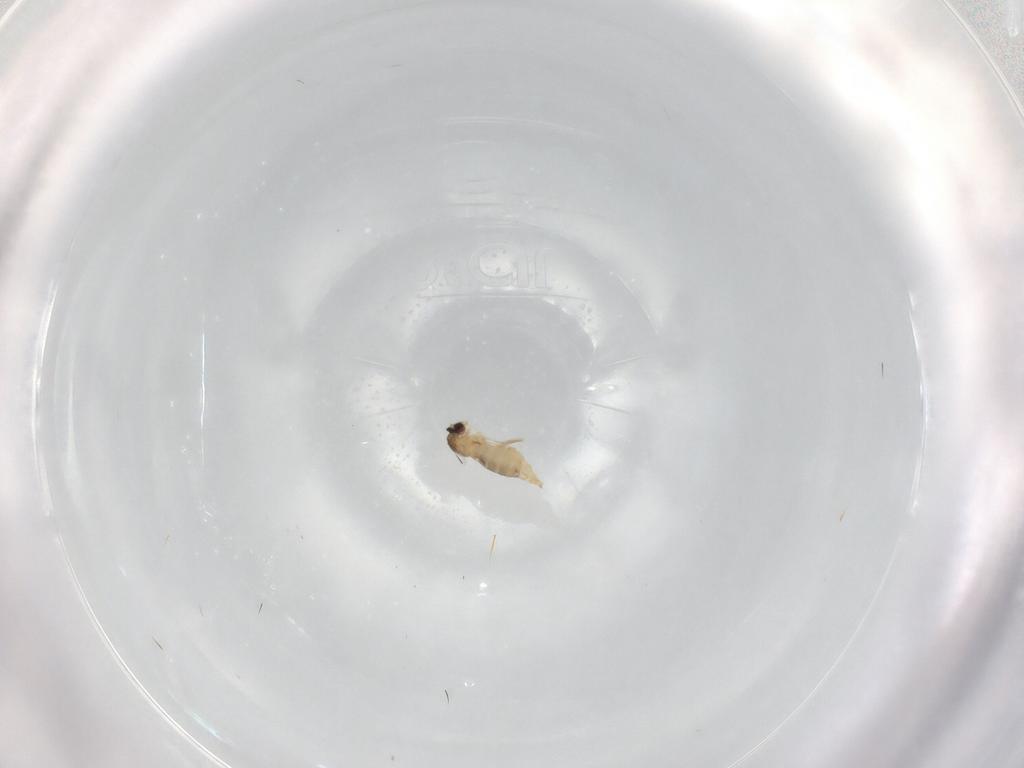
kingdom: Animalia
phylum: Arthropoda
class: Insecta
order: Diptera
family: Cecidomyiidae
